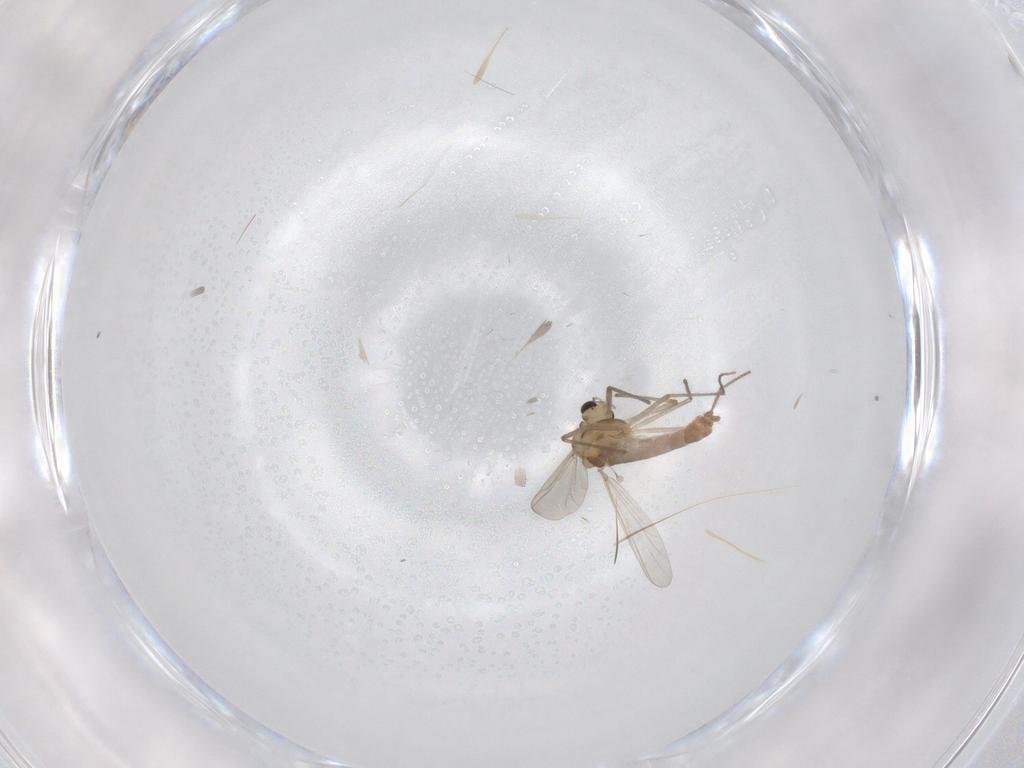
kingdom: Animalia
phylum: Arthropoda
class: Insecta
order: Diptera
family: Chironomidae
